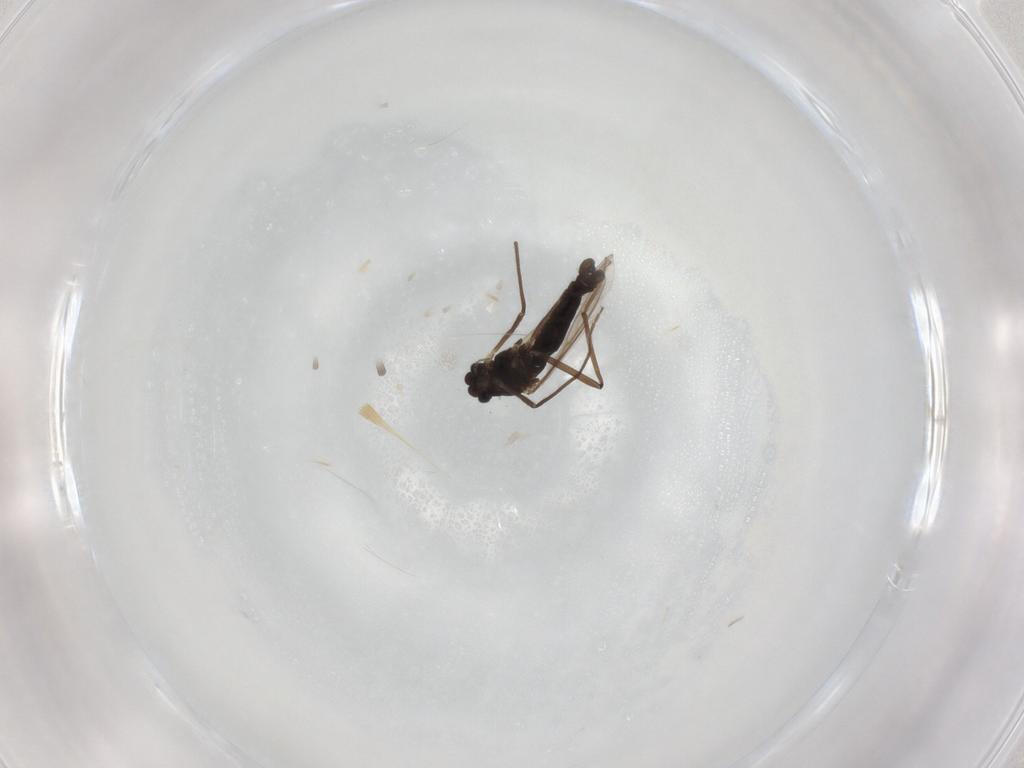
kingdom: Animalia
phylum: Arthropoda
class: Insecta
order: Diptera
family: Chironomidae
